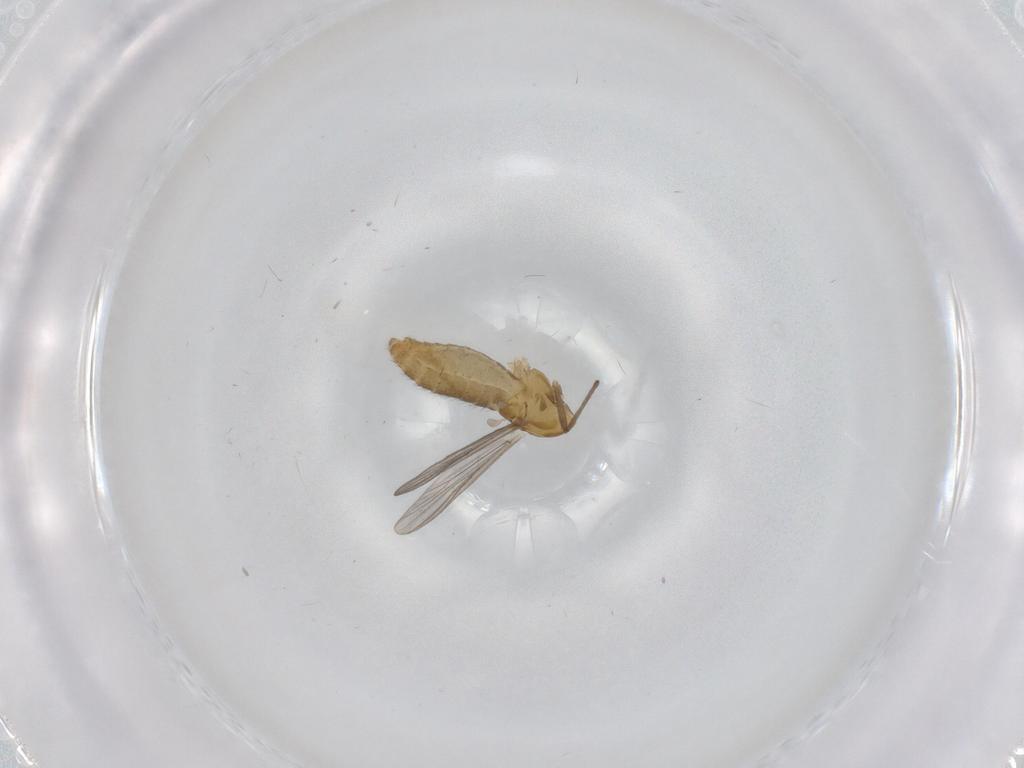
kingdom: Animalia
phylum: Arthropoda
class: Insecta
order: Diptera
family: Chironomidae
